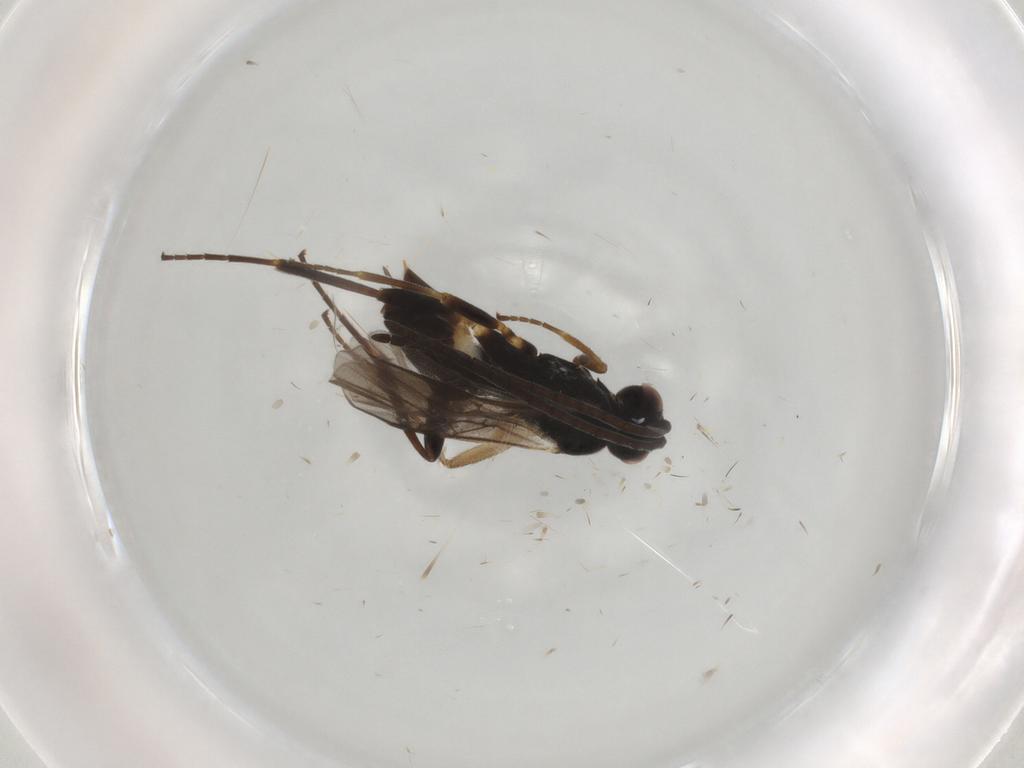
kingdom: Animalia
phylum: Arthropoda
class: Insecta
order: Hymenoptera
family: Braconidae
